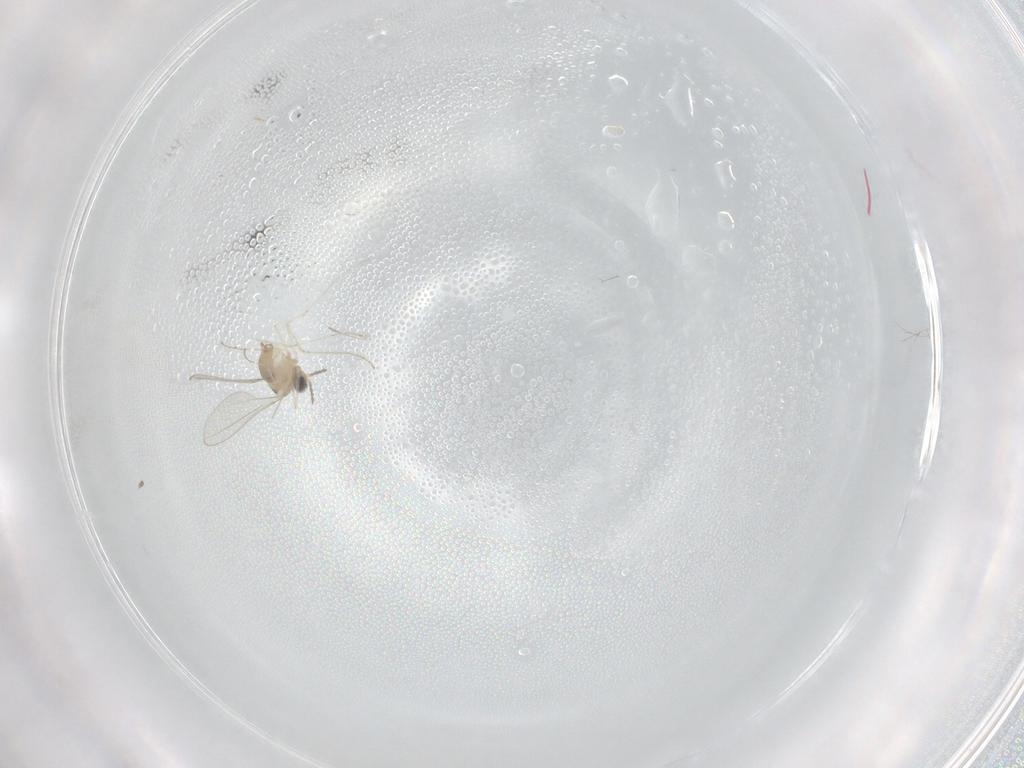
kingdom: Animalia
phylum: Arthropoda
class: Insecta
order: Diptera
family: Cecidomyiidae
